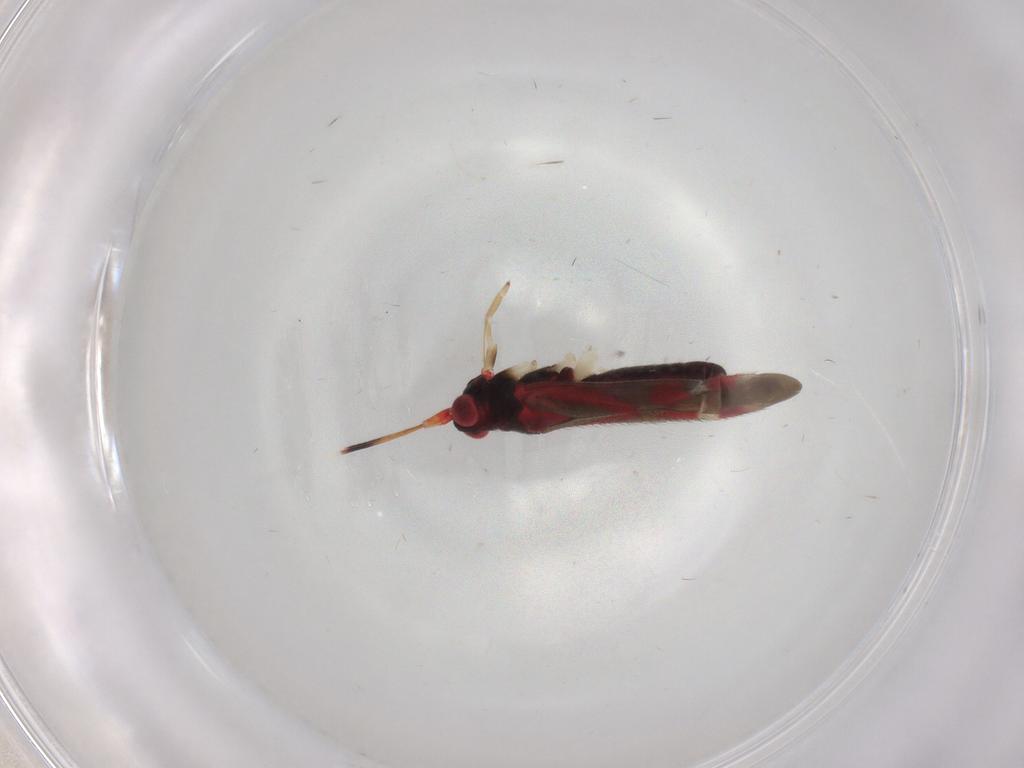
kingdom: Animalia
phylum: Arthropoda
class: Insecta
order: Hemiptera
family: Miridae
